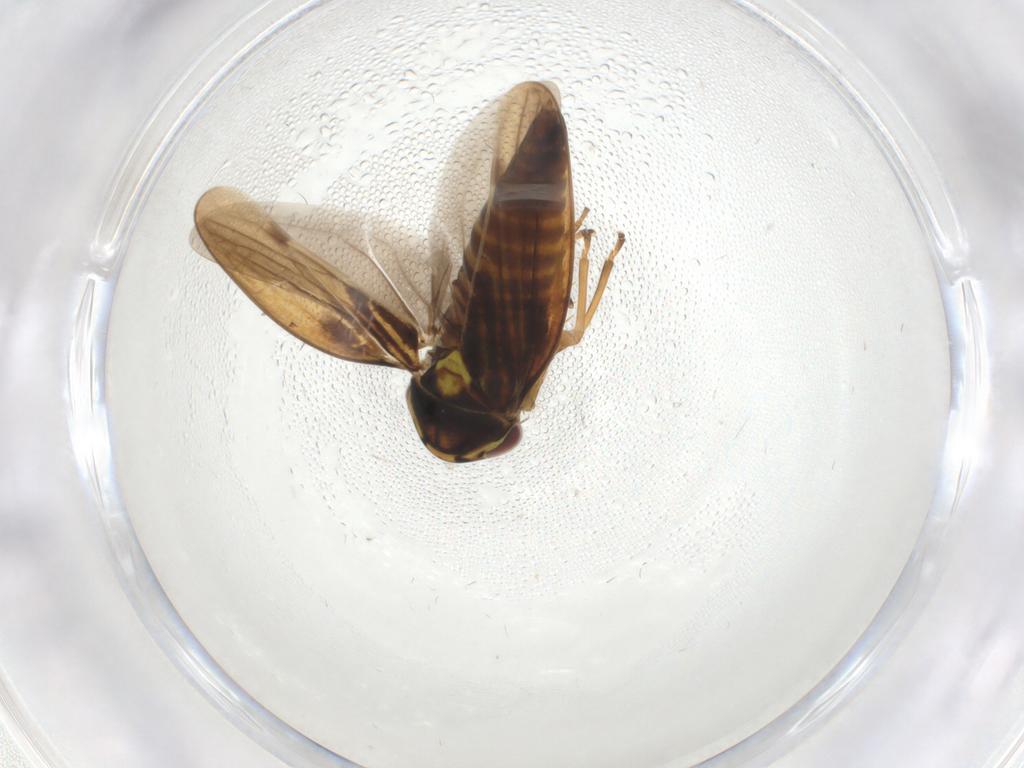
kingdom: Animalia
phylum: Arthropoda
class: Insecta
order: Hemiptera
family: Cicadellidae
